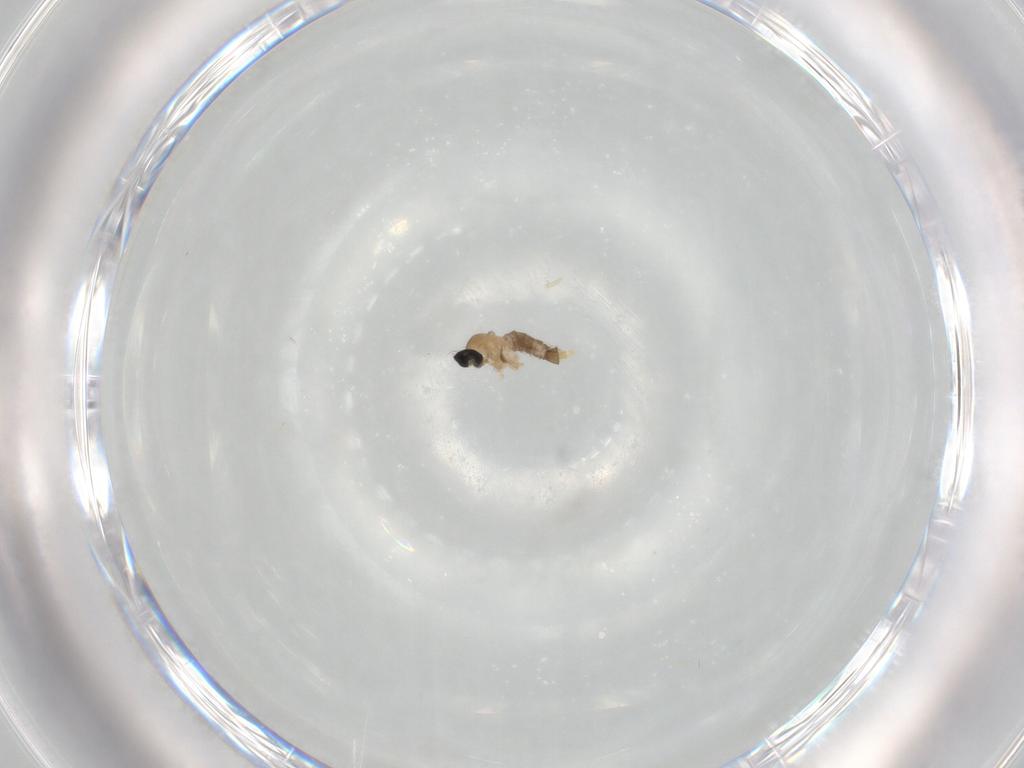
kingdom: Animalia
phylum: Arthropoda
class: Insecta
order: Diptera
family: Cecidomyiidae
